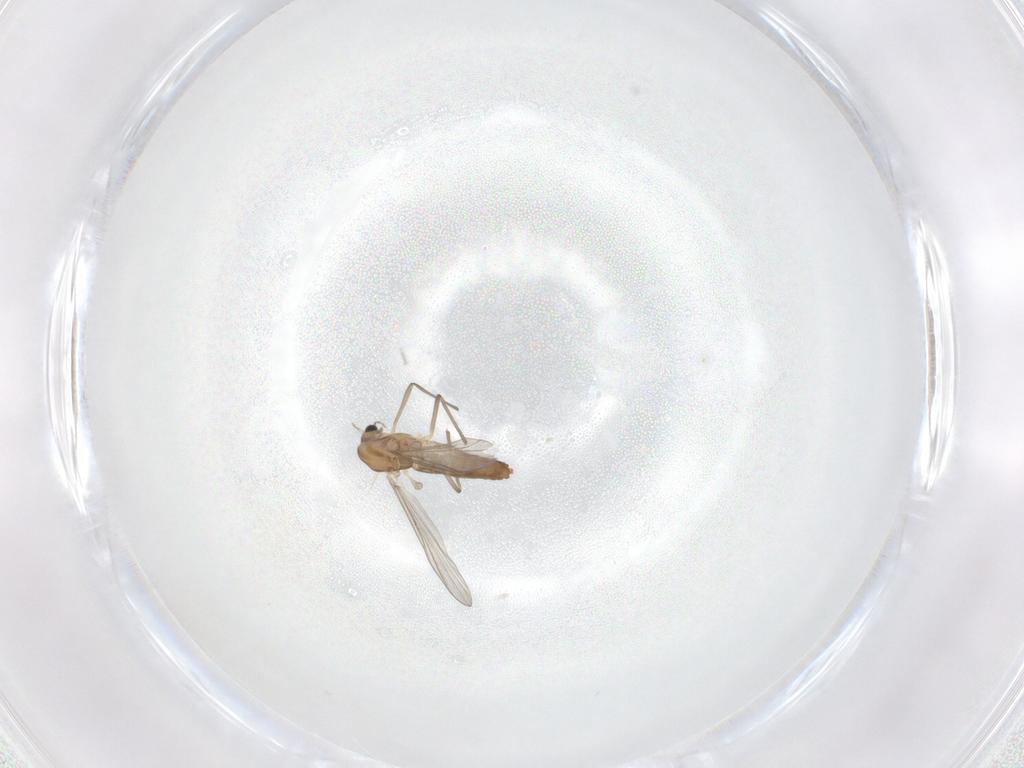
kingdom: Animalia
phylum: Arthropoda
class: Insecta
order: Diptera
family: Chironomidae
